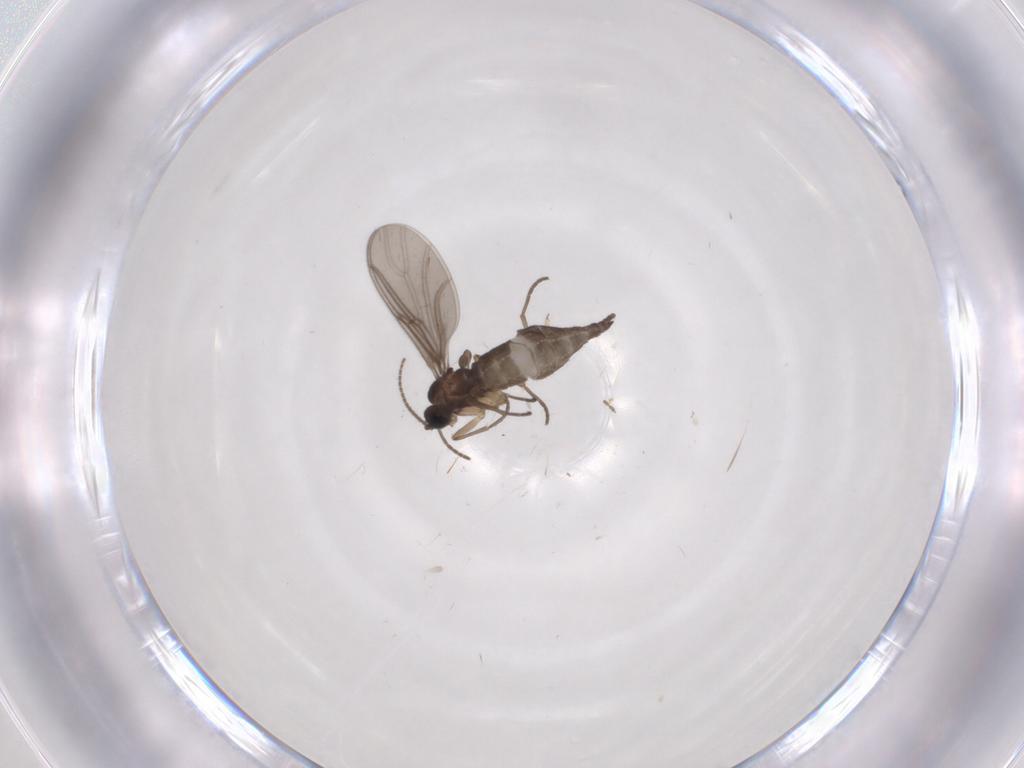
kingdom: Animalia
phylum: Arthropoda
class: Insecta
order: Diptera
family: Sciaridae
